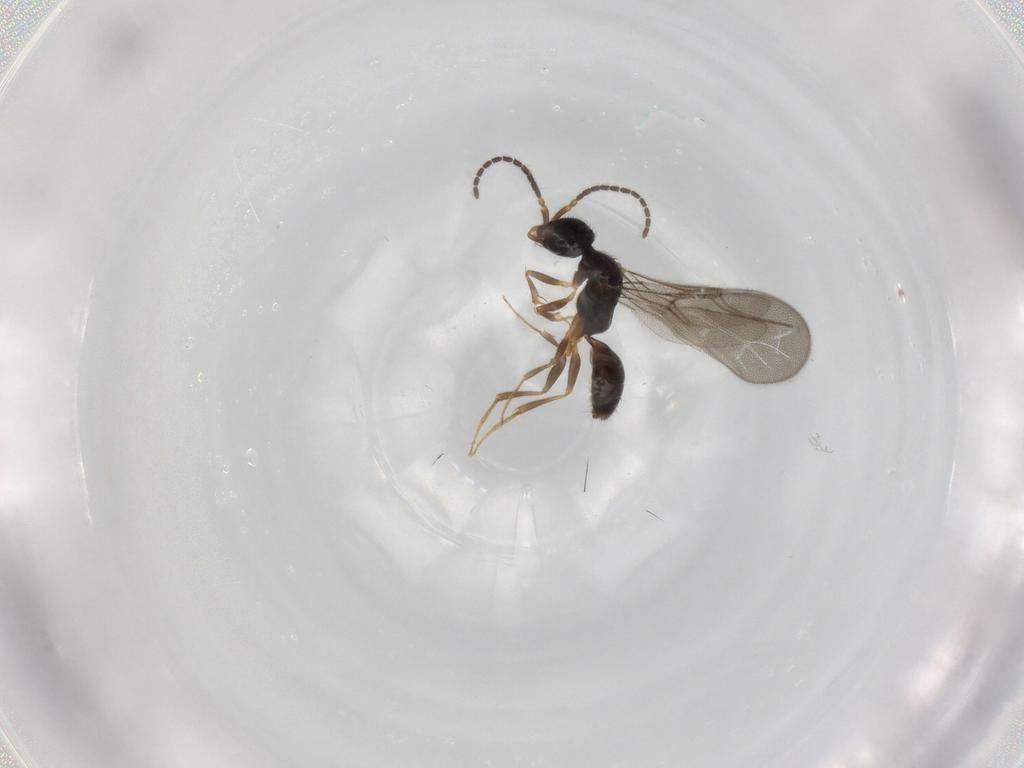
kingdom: Animalia
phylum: Arthropoda
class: Insecta
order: Hymenoptera
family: Bethylidae
